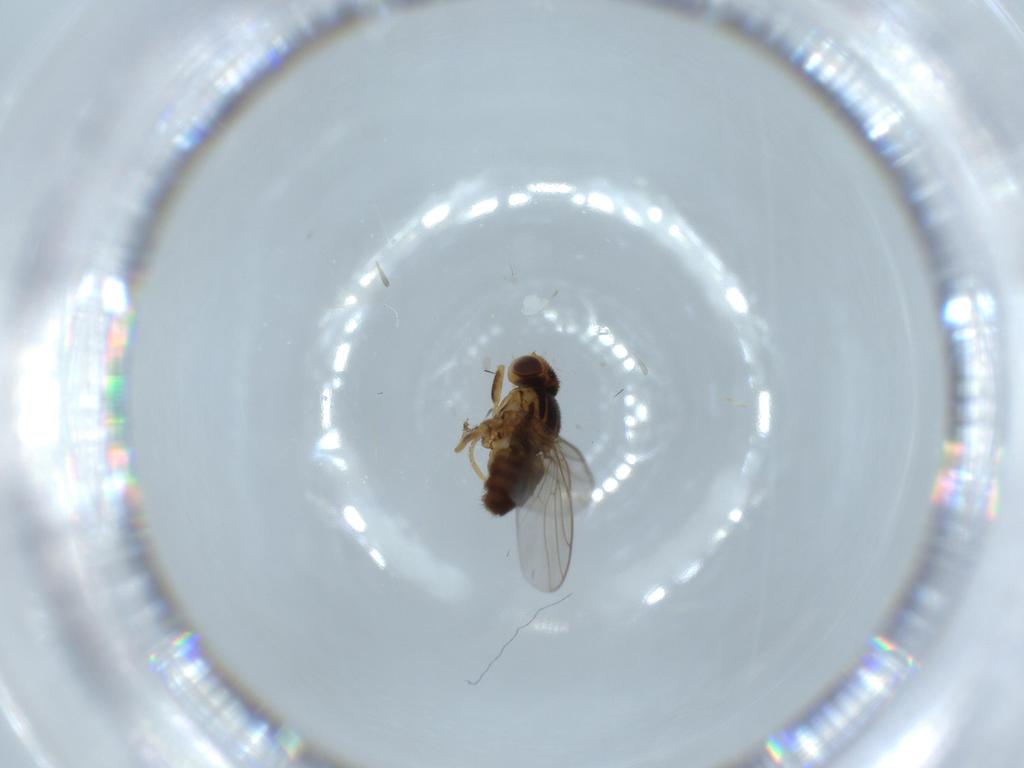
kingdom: Animalia
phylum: Arthropoda
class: Insecta
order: Diptera
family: Chloropidae
